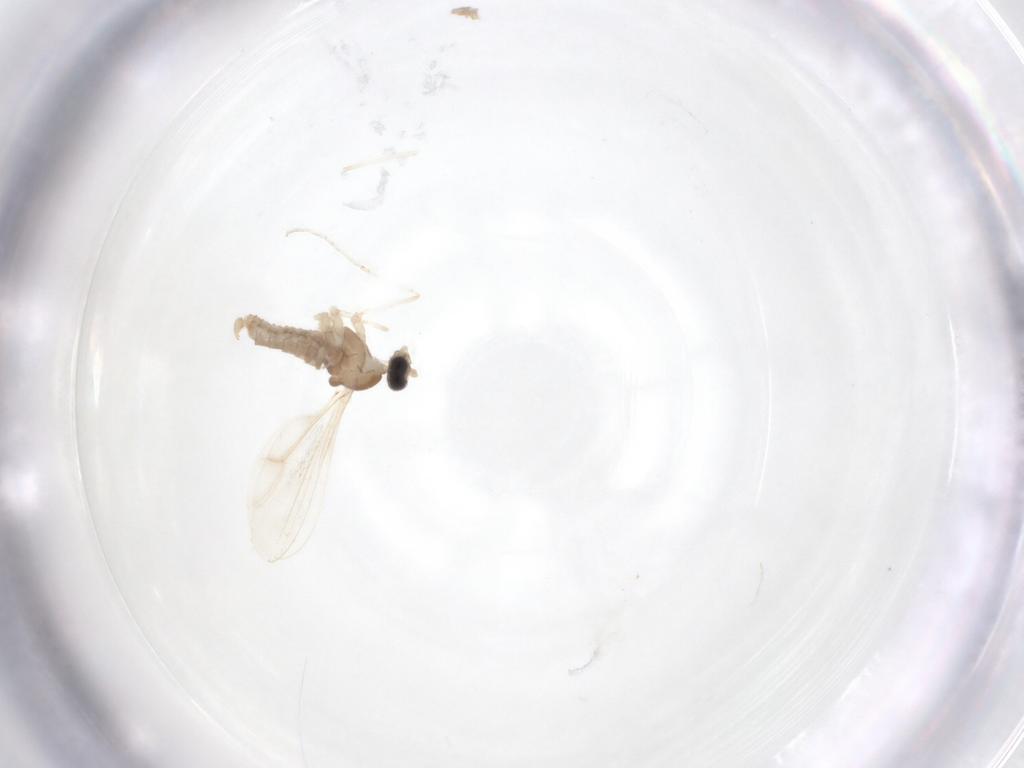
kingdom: Animalia
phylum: Arthropoda
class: Insecta
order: Diptera
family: Cecidomyiidae
